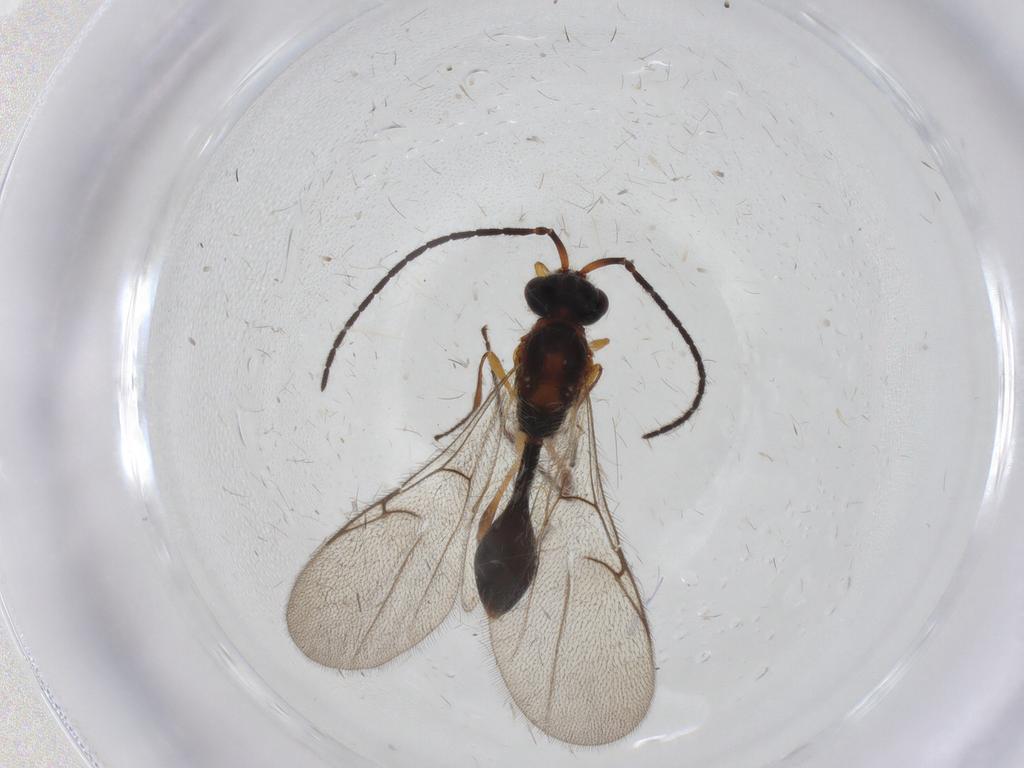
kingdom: Animalia
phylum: Arthropoda
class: Insecta
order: Hymenoptera
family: Diapriidae
